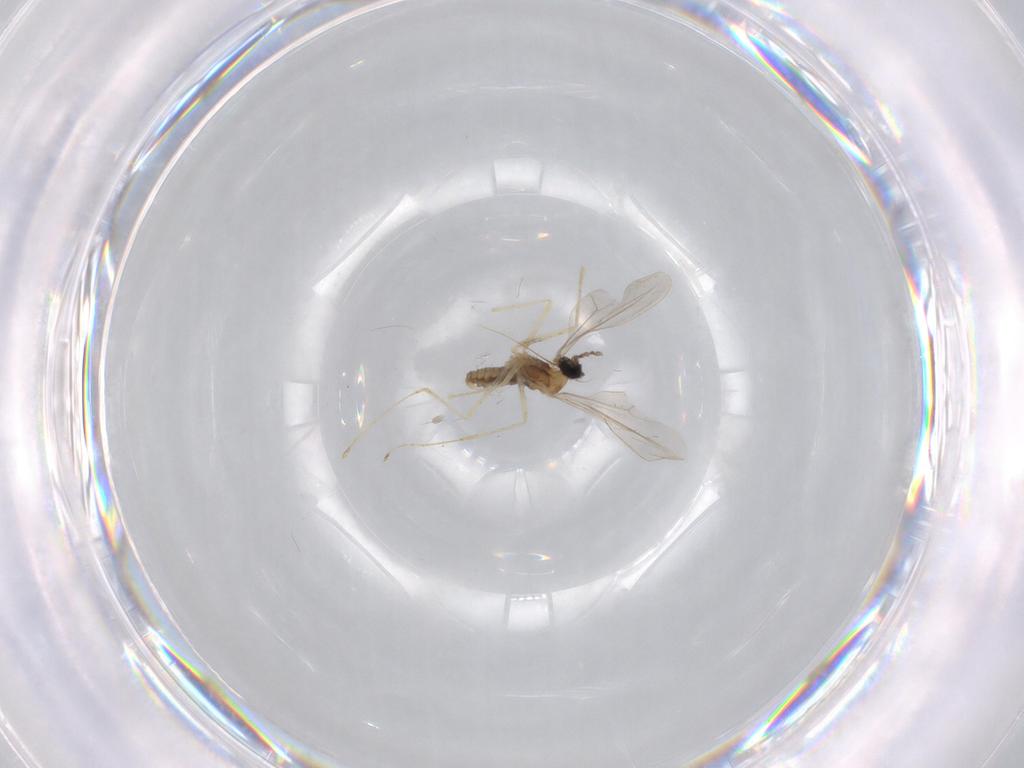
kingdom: Animalia
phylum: Arthropoda
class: Insecta
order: Diptera
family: Cecidomyiidae
